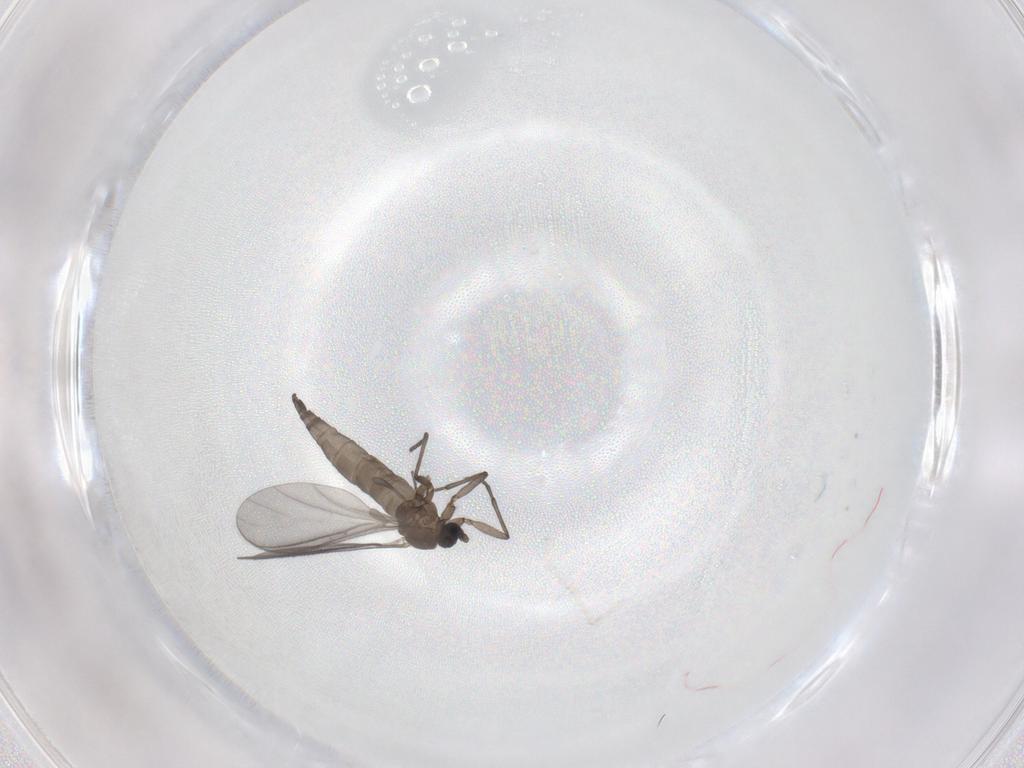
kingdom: Animalia
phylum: Arthropoda
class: Insecta
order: Diptera
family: Sciaridae
